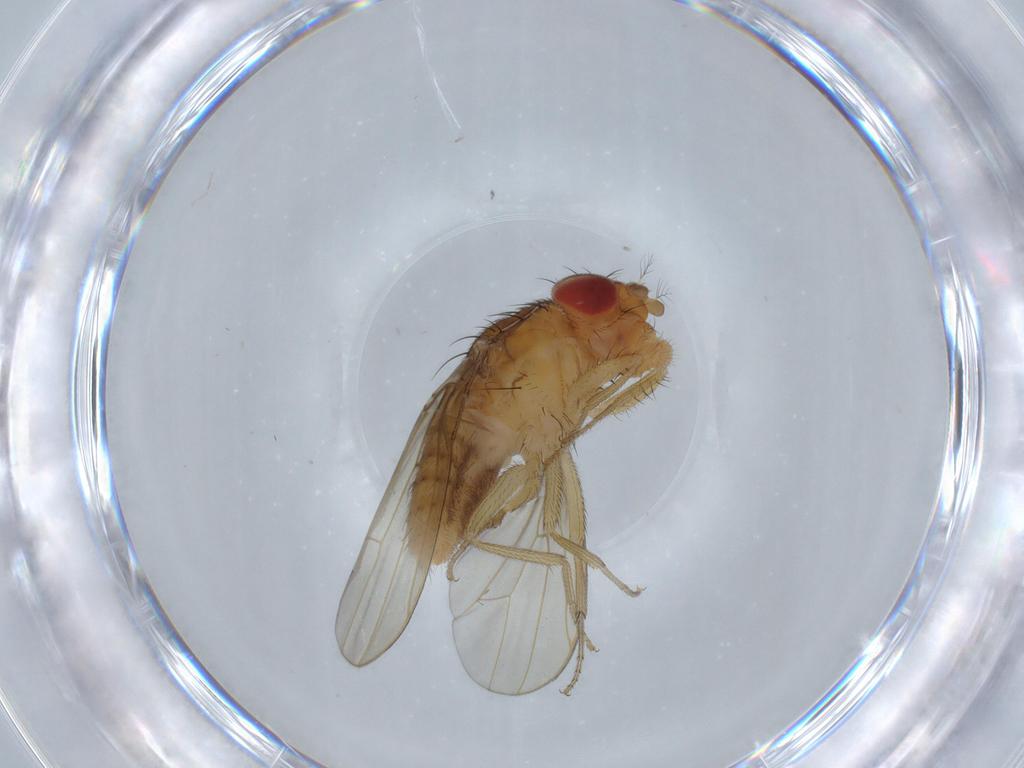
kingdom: Animalia
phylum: Arthropoda
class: Insecta
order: Diptera
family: Drosophilidae
